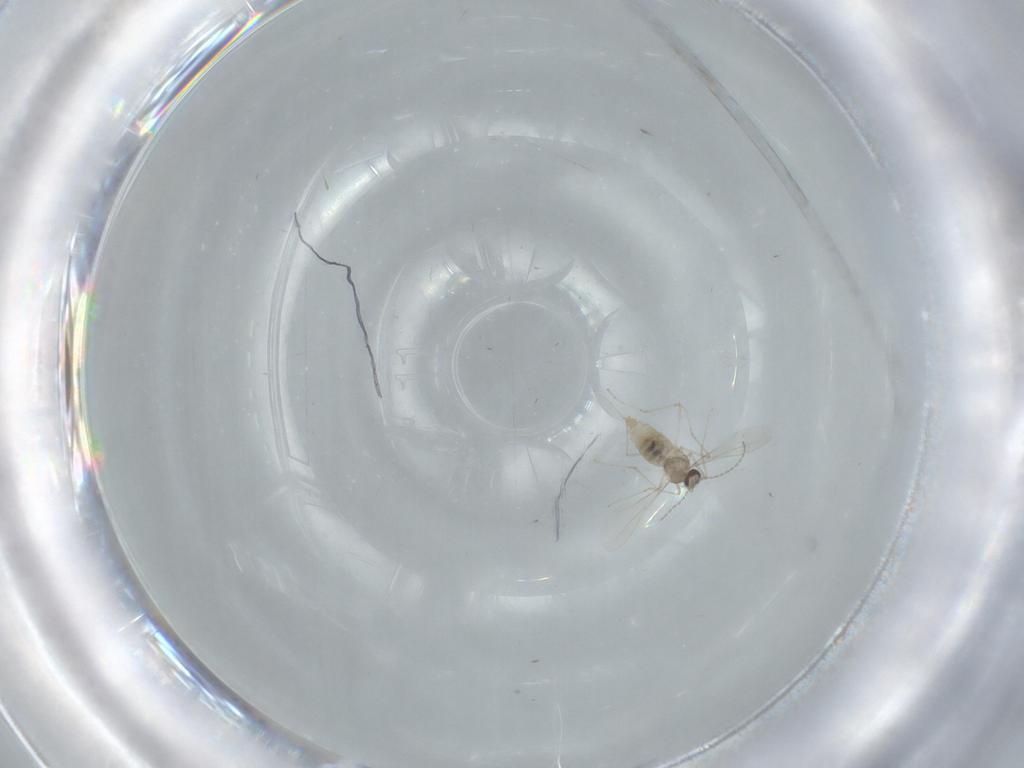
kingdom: Animalia
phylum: Arthropoda
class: Insecta
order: Diptera
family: Cecidomyiidae
